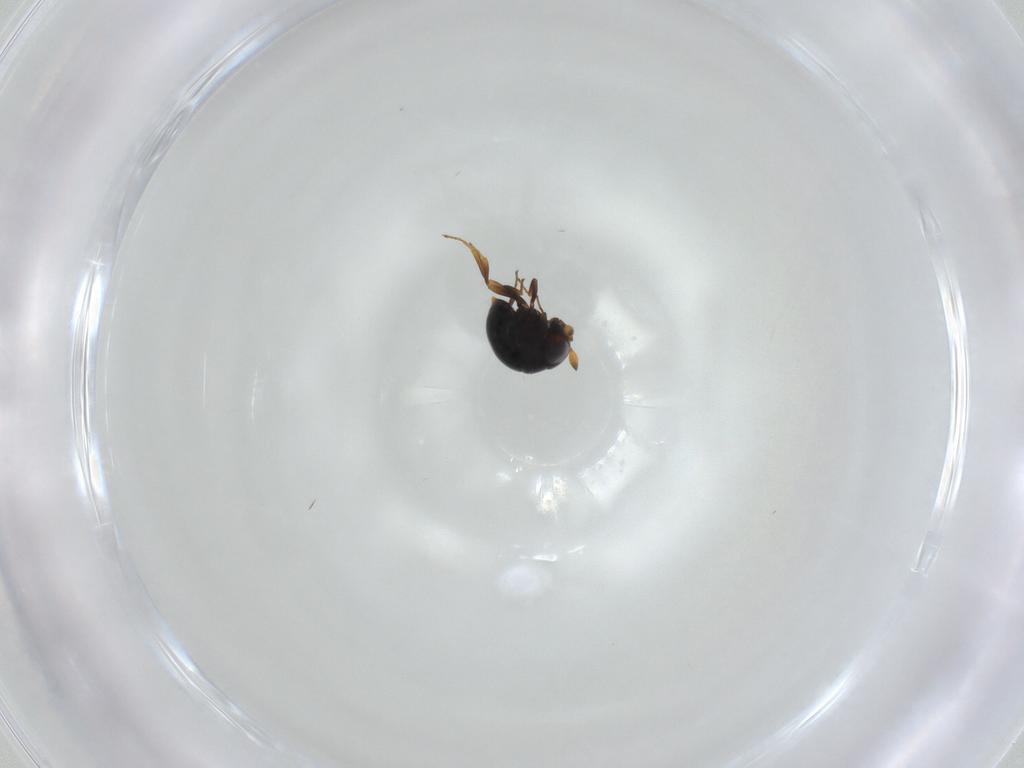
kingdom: Animalia
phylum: Arthropoda
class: Insecta
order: Hymenoptera
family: Scelionidae
